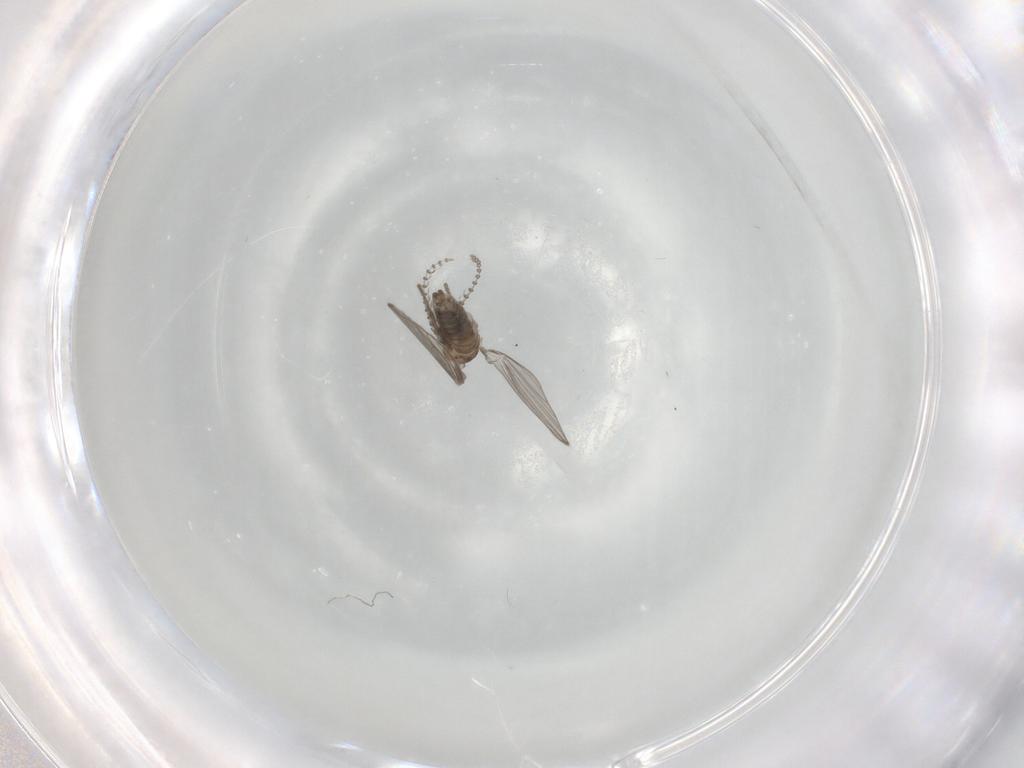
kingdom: Animalia
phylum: Arthropoda
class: Insecta
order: Diptera
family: Psychodidae
